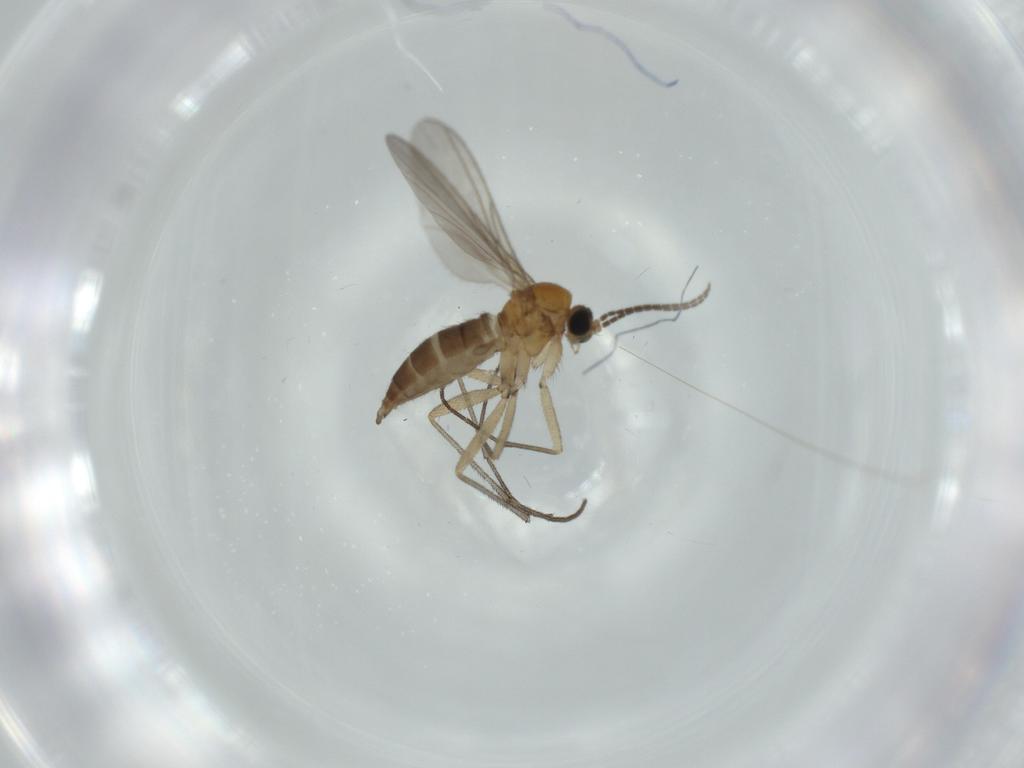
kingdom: Animalia
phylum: Arthropoda
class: Insecta
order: Diptera
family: Sciaridae
